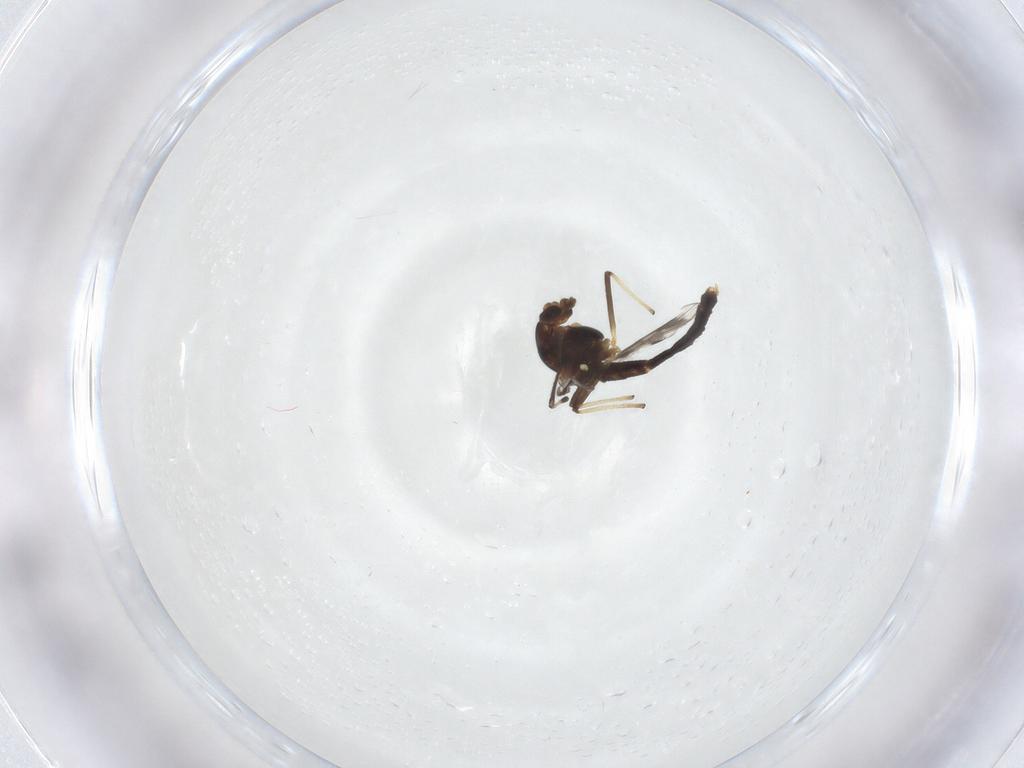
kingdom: Animalia
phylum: Arthropoda
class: Insecta
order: Diptera
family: Chironomidae
